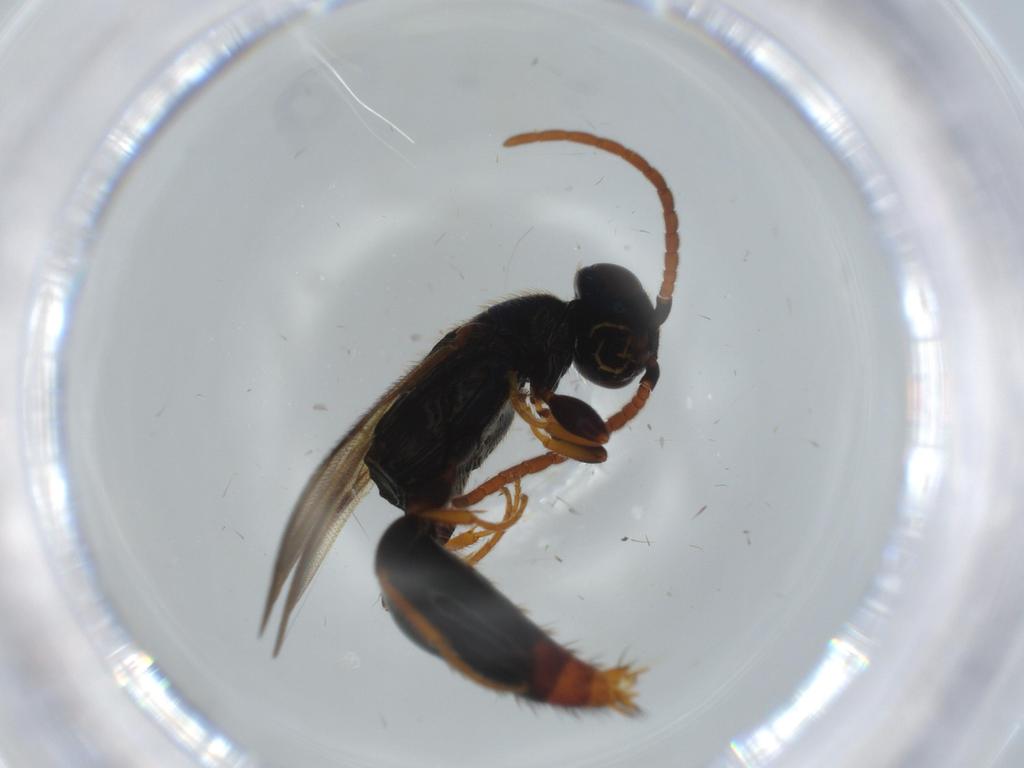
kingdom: Animalia
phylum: Arthropoda
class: Insecta
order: Hymenoptera
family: Bethylidae
